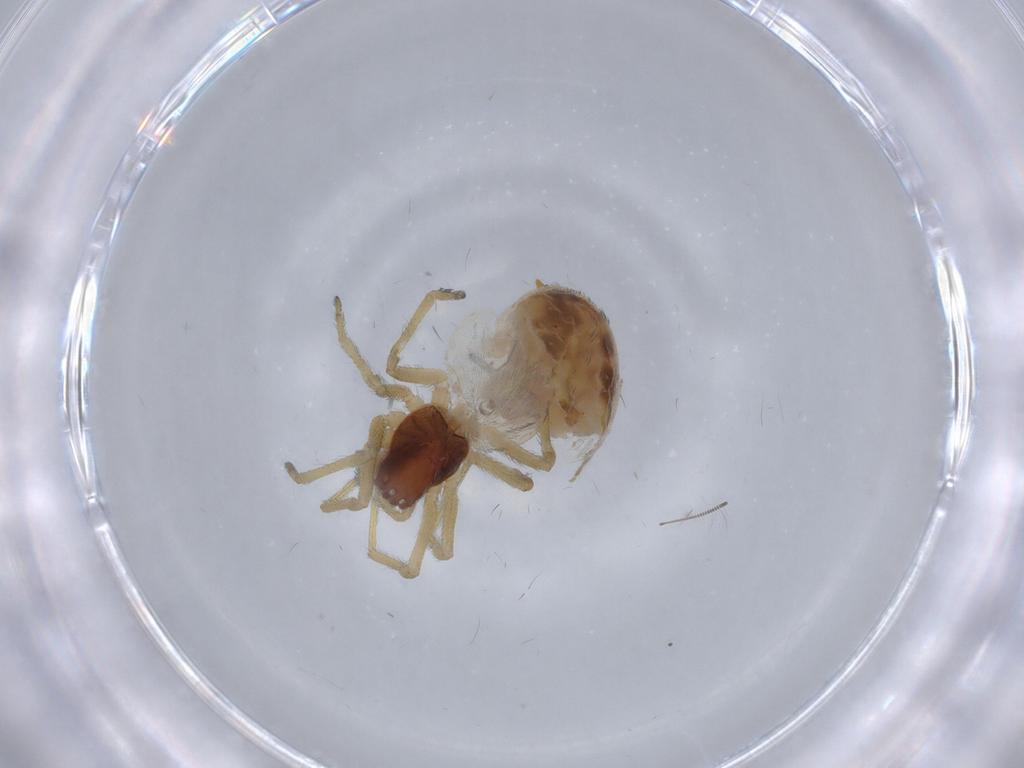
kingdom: Animalia
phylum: Arthropoda
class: Arachnida
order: Araneae
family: Dictynidae
